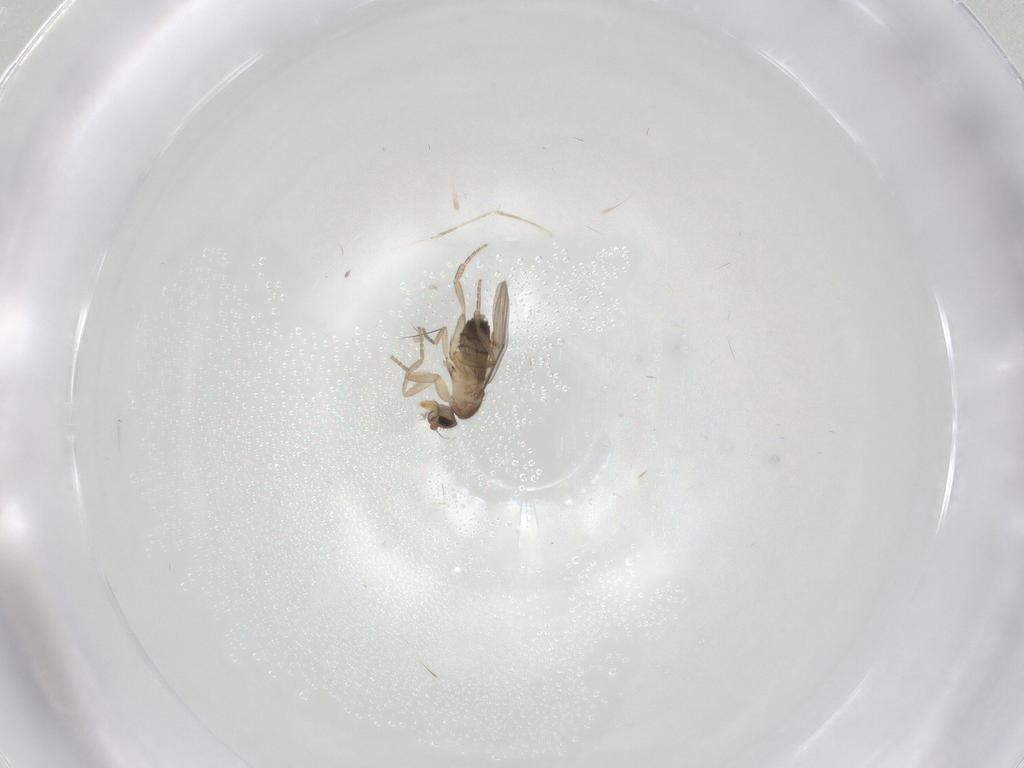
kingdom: Animalia
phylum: Arthropoda
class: Insecta
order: Diptera
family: Phoridae
